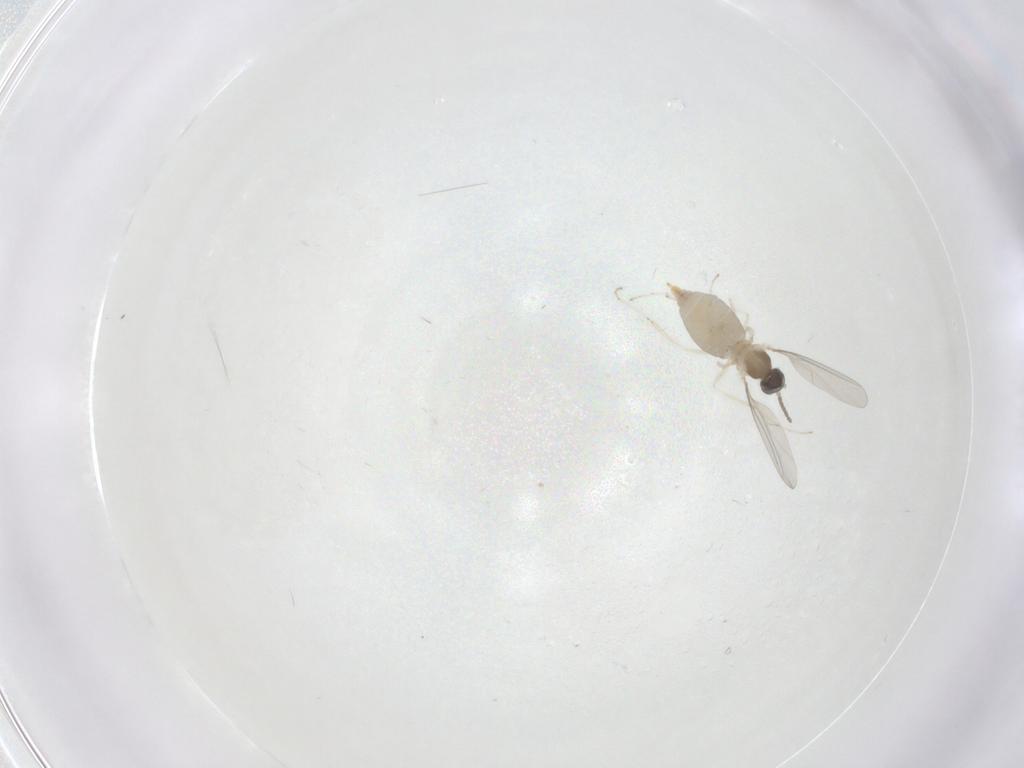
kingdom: Animalia
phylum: Arthropoda
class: Insecta
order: Diptera
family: Cecidomyiidae
